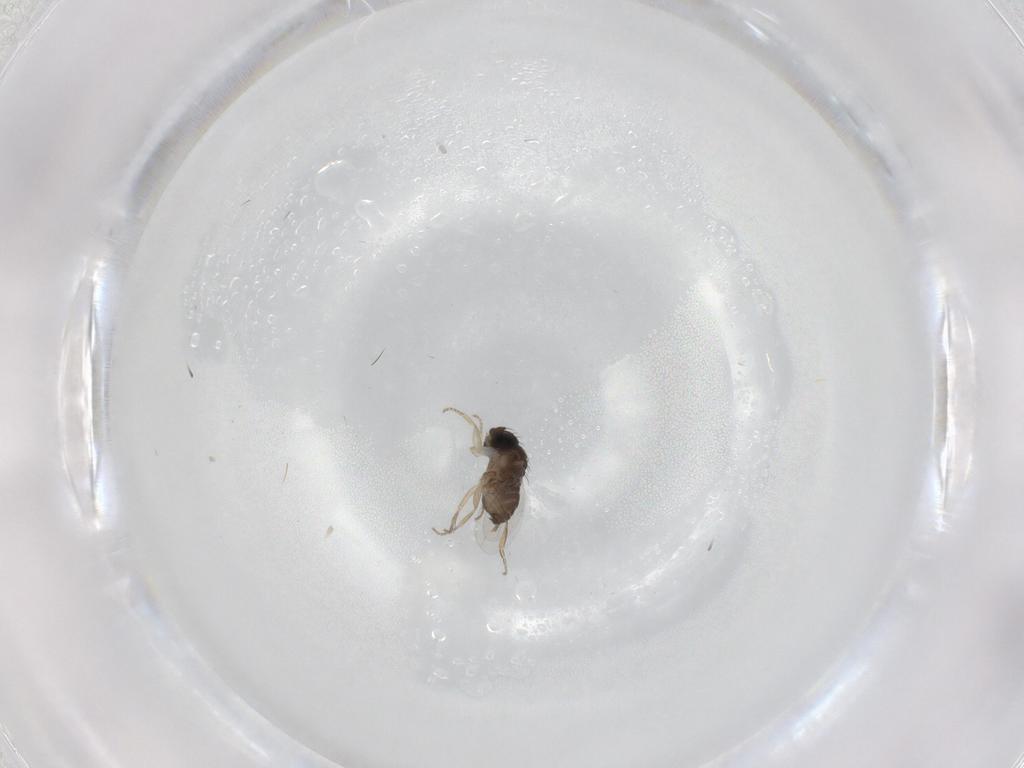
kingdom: Animalia
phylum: Arthropoda
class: Insecta
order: Diptera
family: Phoridae
